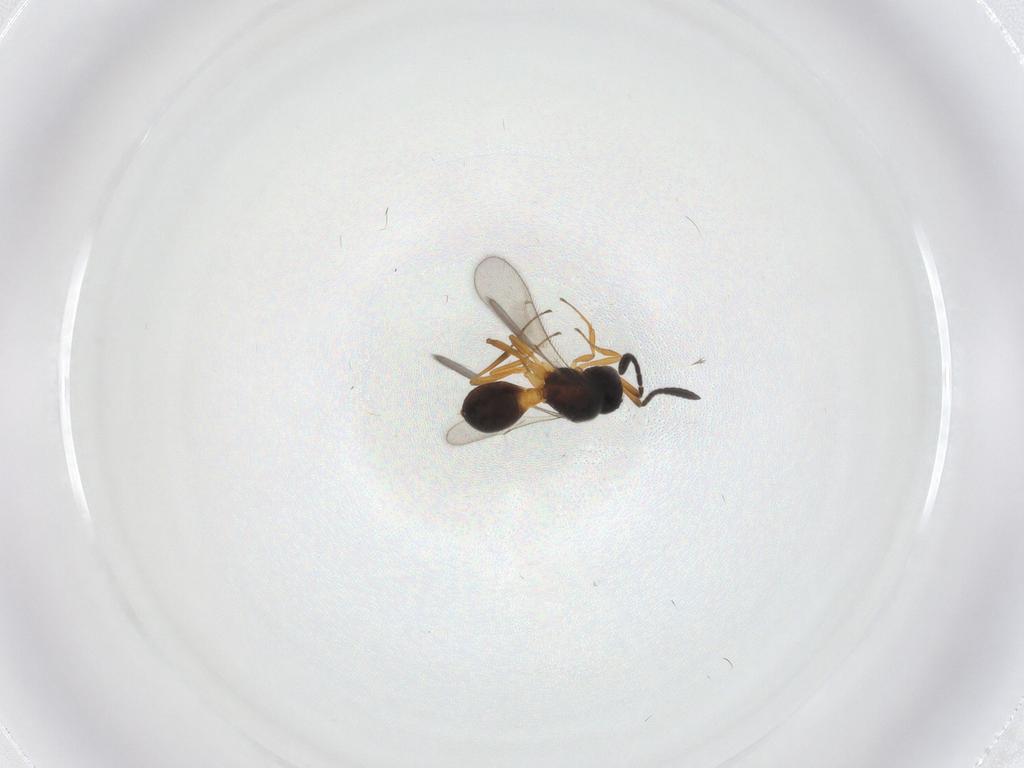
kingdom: Animalia
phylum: Arthropoda
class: Insecta
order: Hymenoptera
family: Scelionidae
